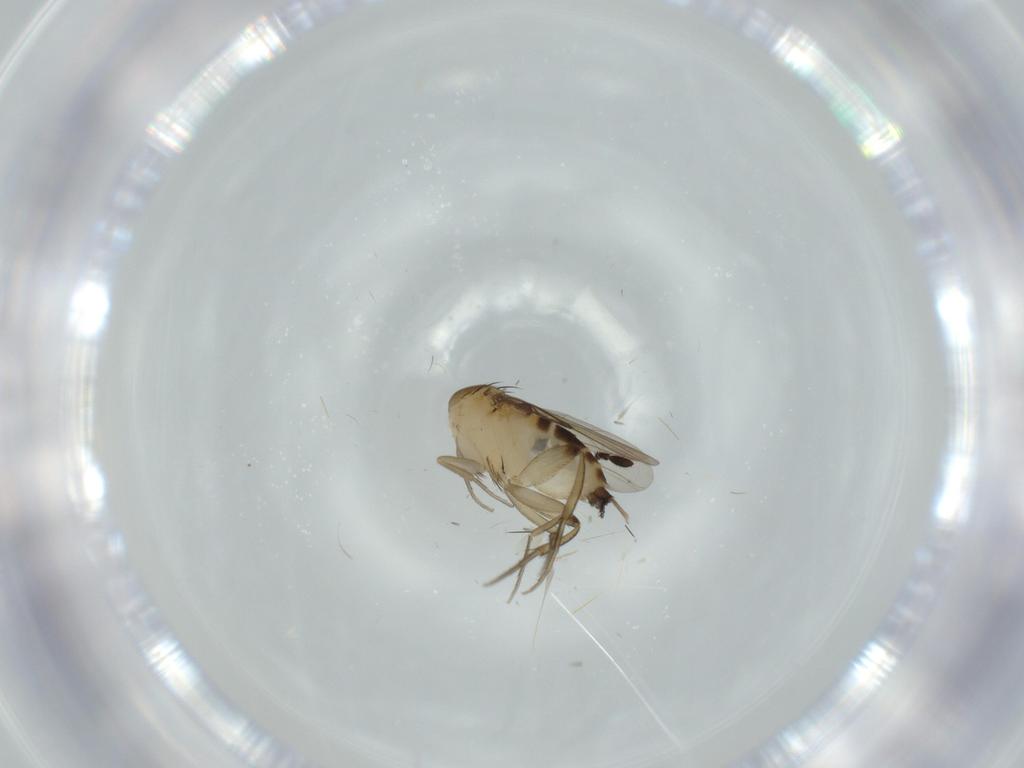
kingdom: Animalia
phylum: Arthropoda
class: Insecta
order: Diptera
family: Phoridae
